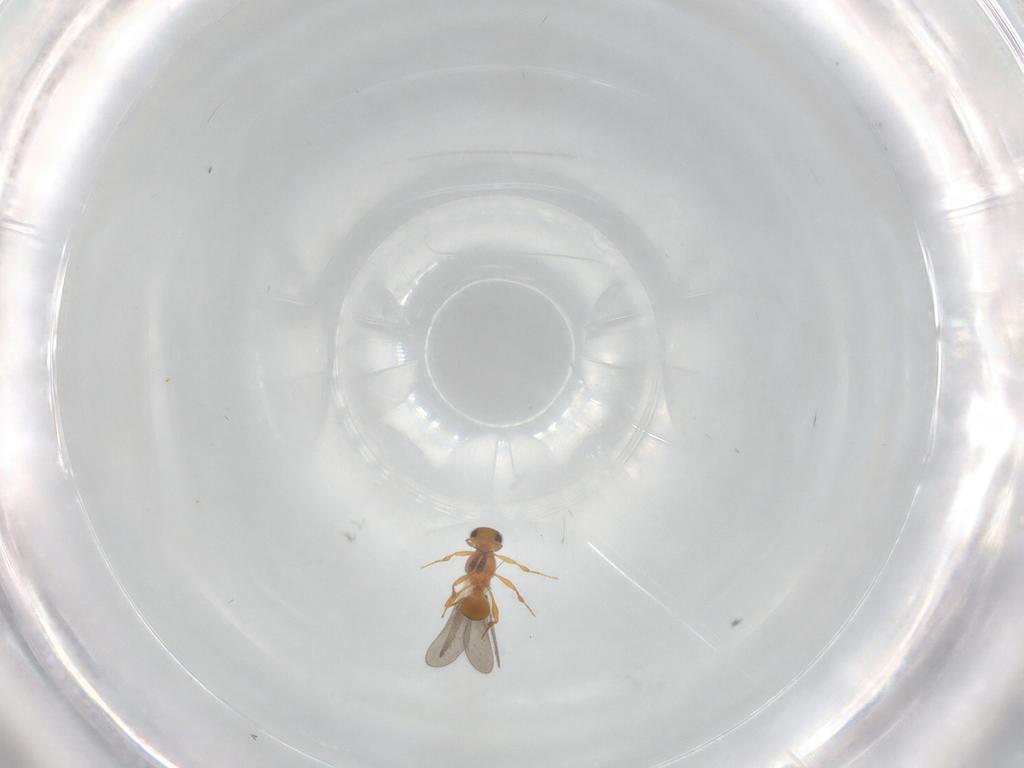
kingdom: Animalia
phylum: Arthropoda
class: Insecta
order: Hymenoptera
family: Platygastridae
